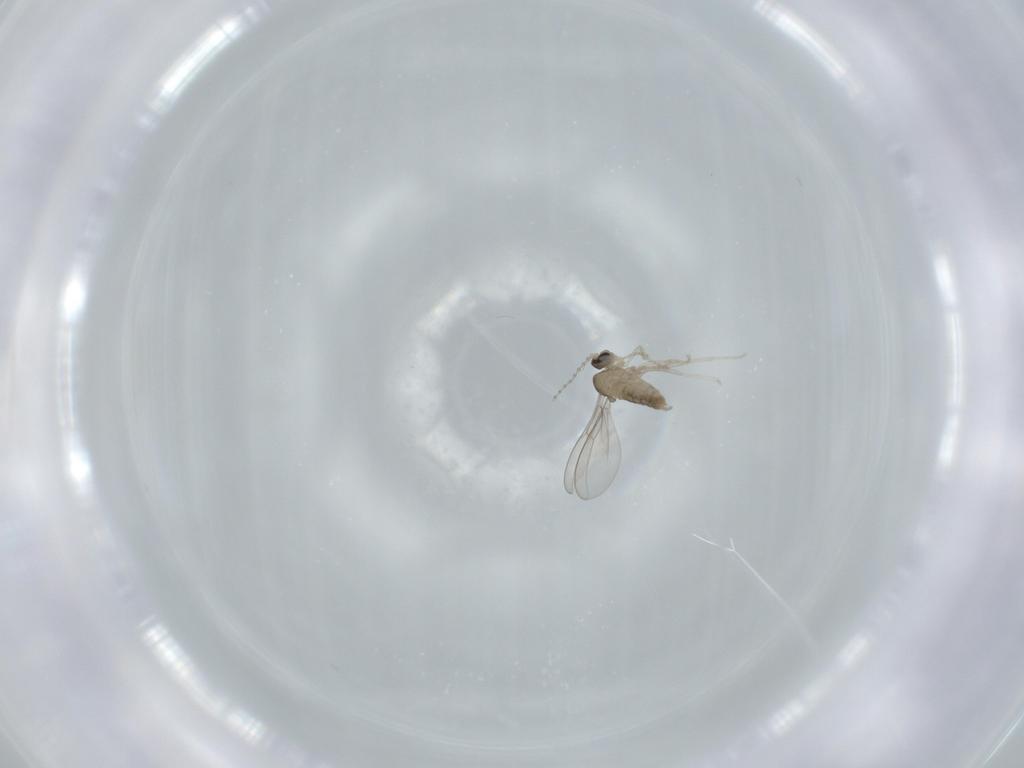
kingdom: Animalia
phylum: Arthropoda
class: Insecta
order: Diptera
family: Cecidomyiidae
